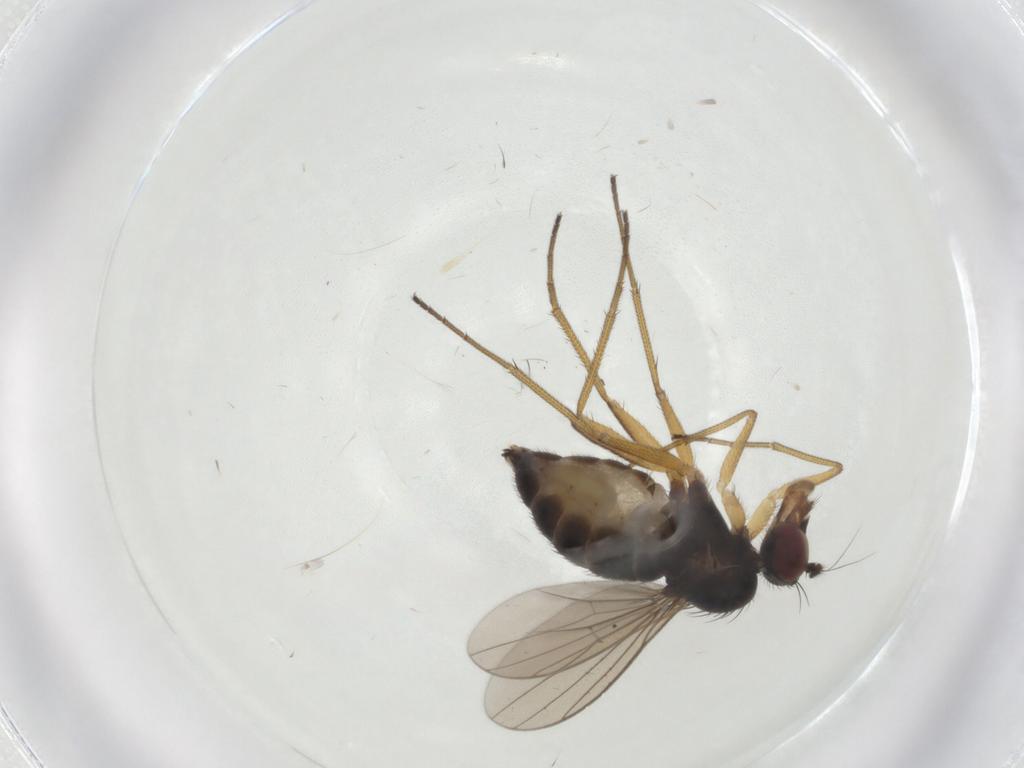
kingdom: Animalia
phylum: Arthropoda
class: Insecta
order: Diptera
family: Dolichopodidae
